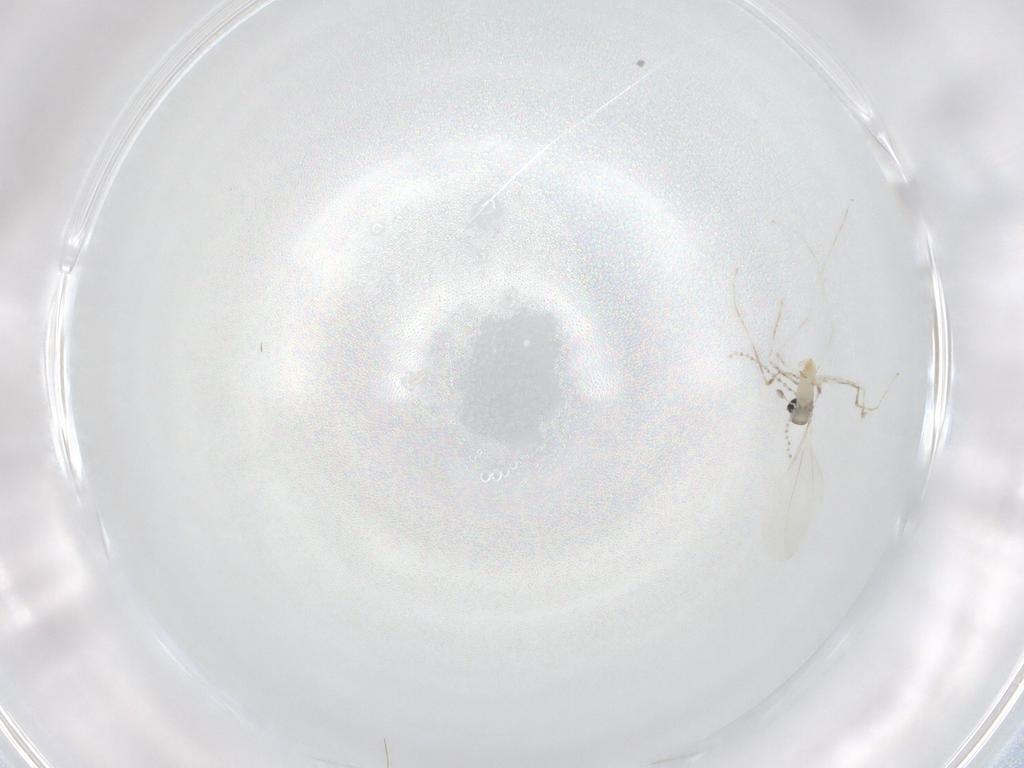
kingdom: Animalia
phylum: Arthropoda
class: Insecta
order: Diptera
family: Cecidomyiidae
